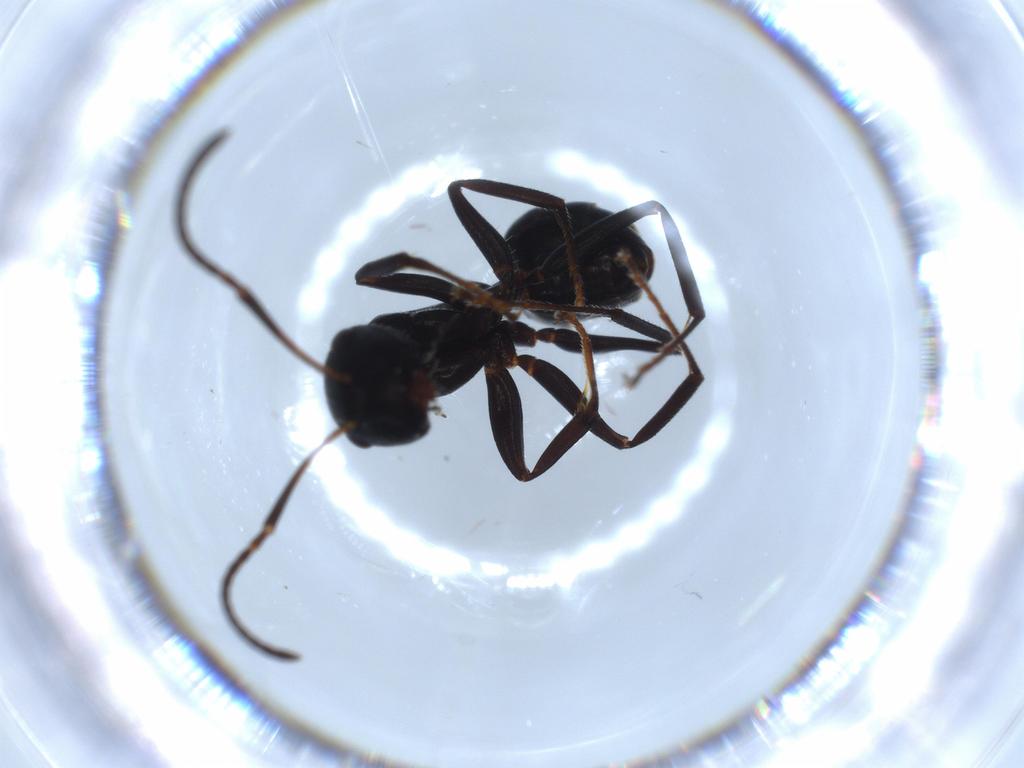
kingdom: Animalia
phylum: Arthropoda
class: Insecta
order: Hymenoptera
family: Formicidae
